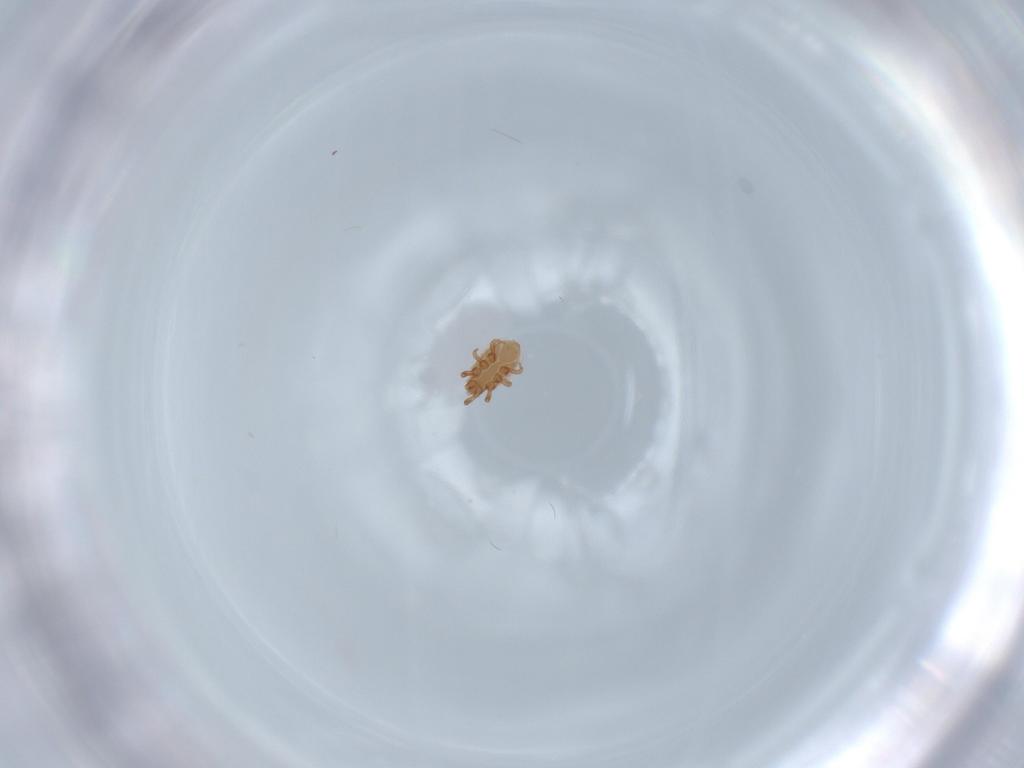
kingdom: Animalia
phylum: Arthropoda
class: Arachnida
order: Mesostigmata
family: Dinychidae
